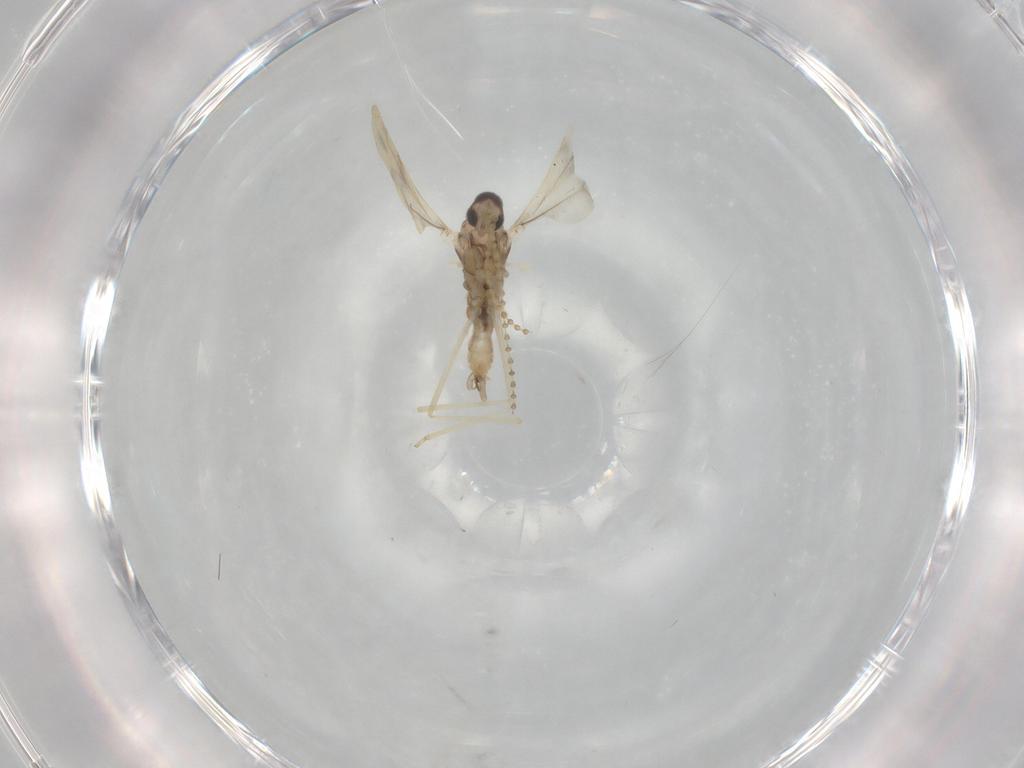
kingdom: Animalia
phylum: Arthropoda
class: Insecta
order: Diptera
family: Cecidomyiidae
